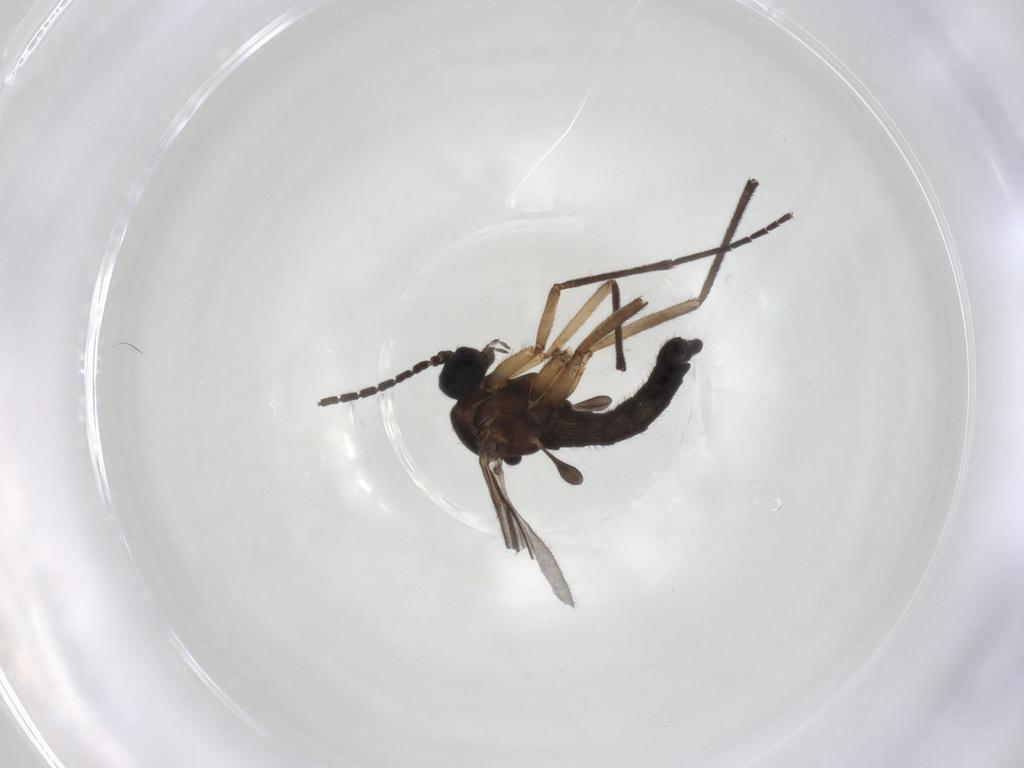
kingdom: Animalia
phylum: Arthropoda
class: Insecta
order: Diptera
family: Sciaridae
